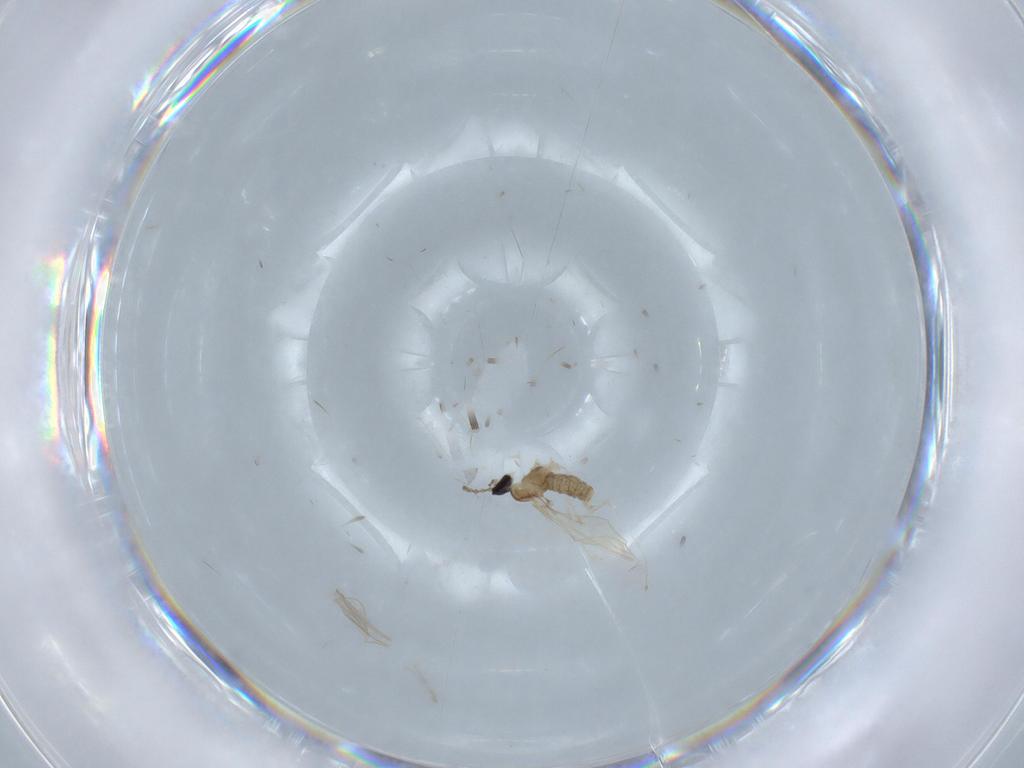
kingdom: Animalia
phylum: Arthropoda
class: Insecta
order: Diptera
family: Cecidomyiidae
